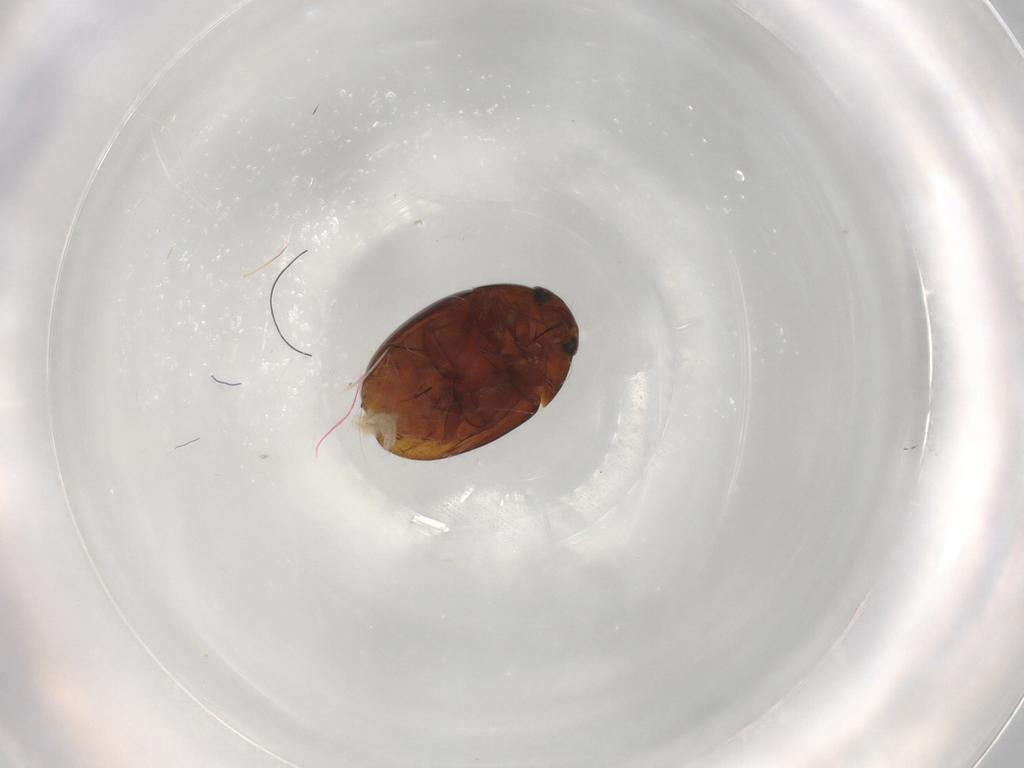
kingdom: Animalia
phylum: Arthropoda
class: Insecta
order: Coleoptera
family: Phalacridae
